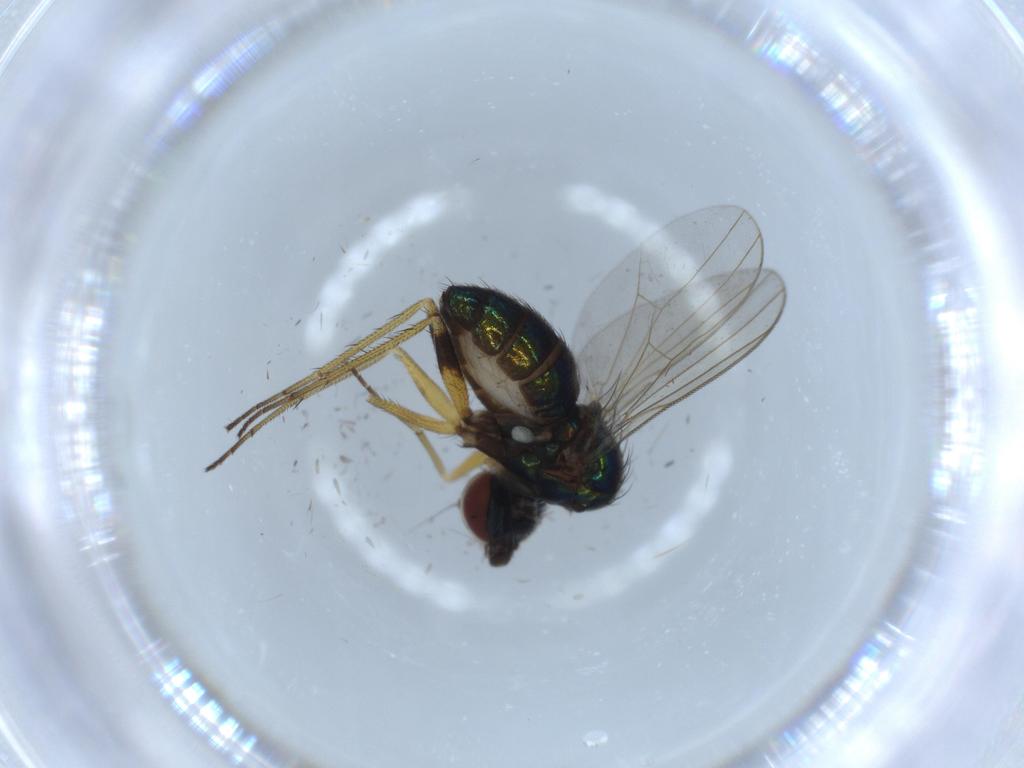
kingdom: Animalia
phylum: Arthropoda
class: Insecta
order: Diptera
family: Dolichopodidae
